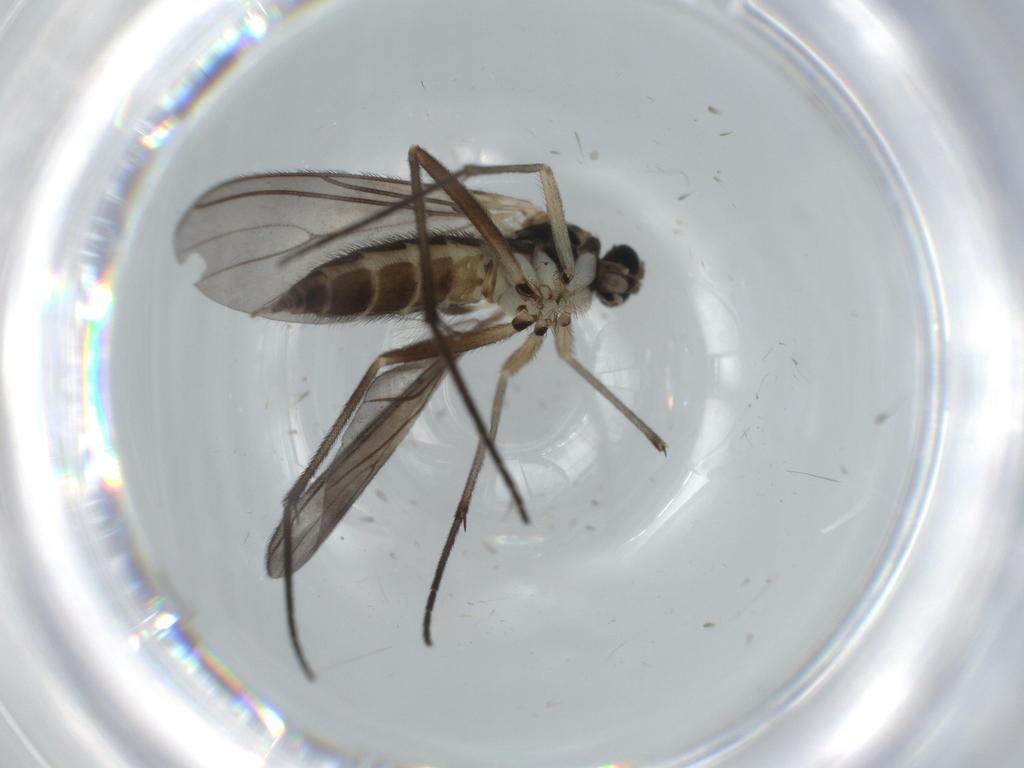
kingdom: Animalia
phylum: Arthropoda
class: Insecta
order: Diptera
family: Sciaridae
